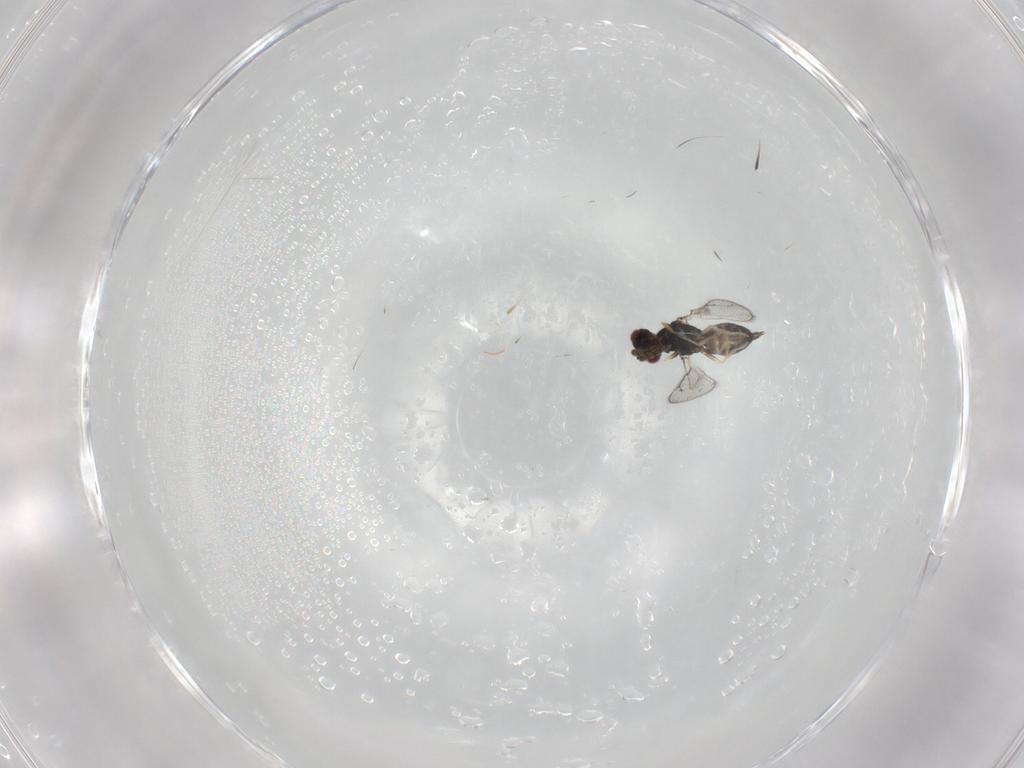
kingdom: Animalia
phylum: Arthropoda
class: Insecta
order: Hymenoptera
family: Eulophidae
